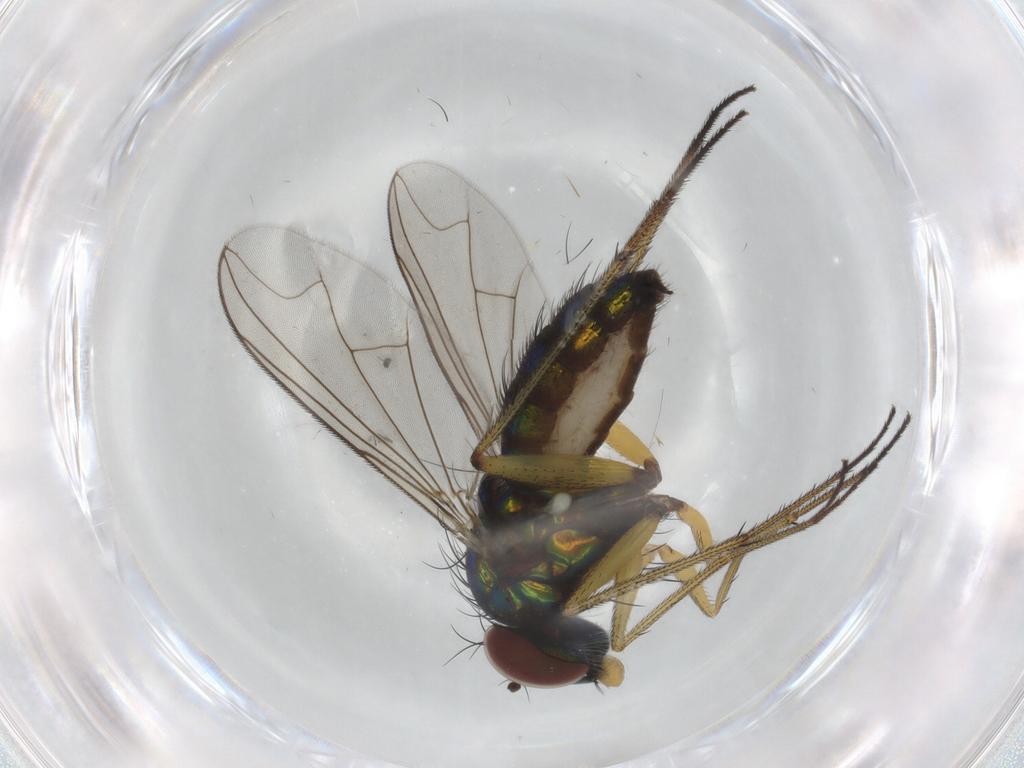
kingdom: Animalia
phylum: Arthropoda
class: Insecta
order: Diptera
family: Dolichopodidae
